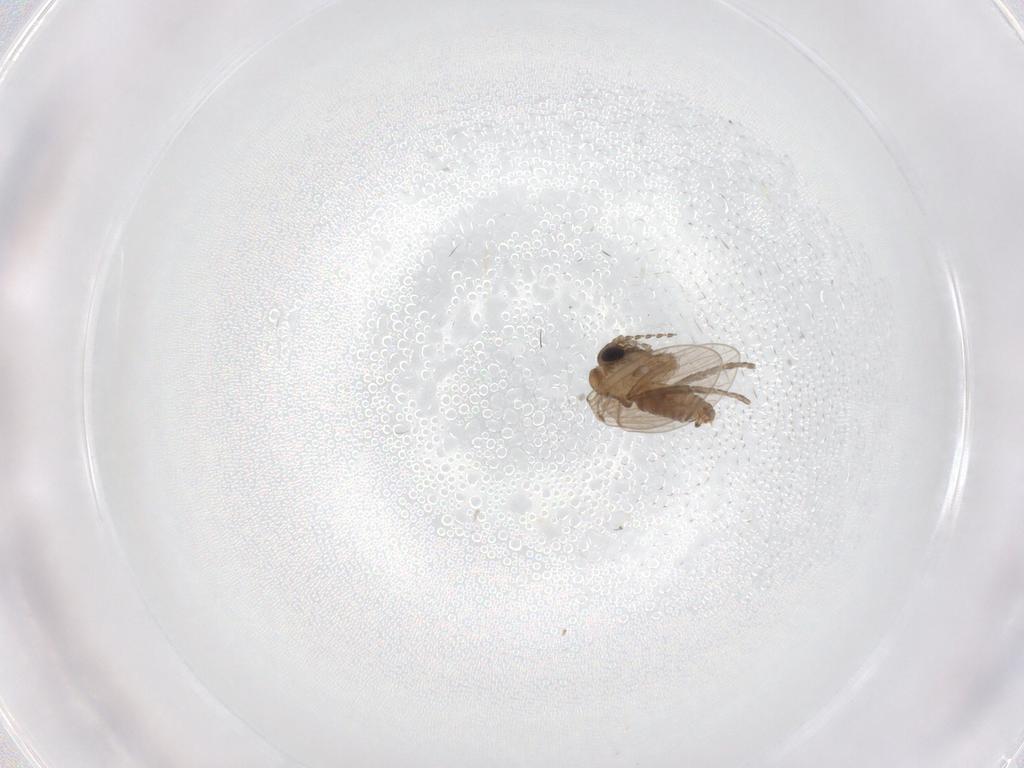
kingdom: Animalia
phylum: Arthropoda
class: Insecta
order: Diptera
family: Psychodidae
